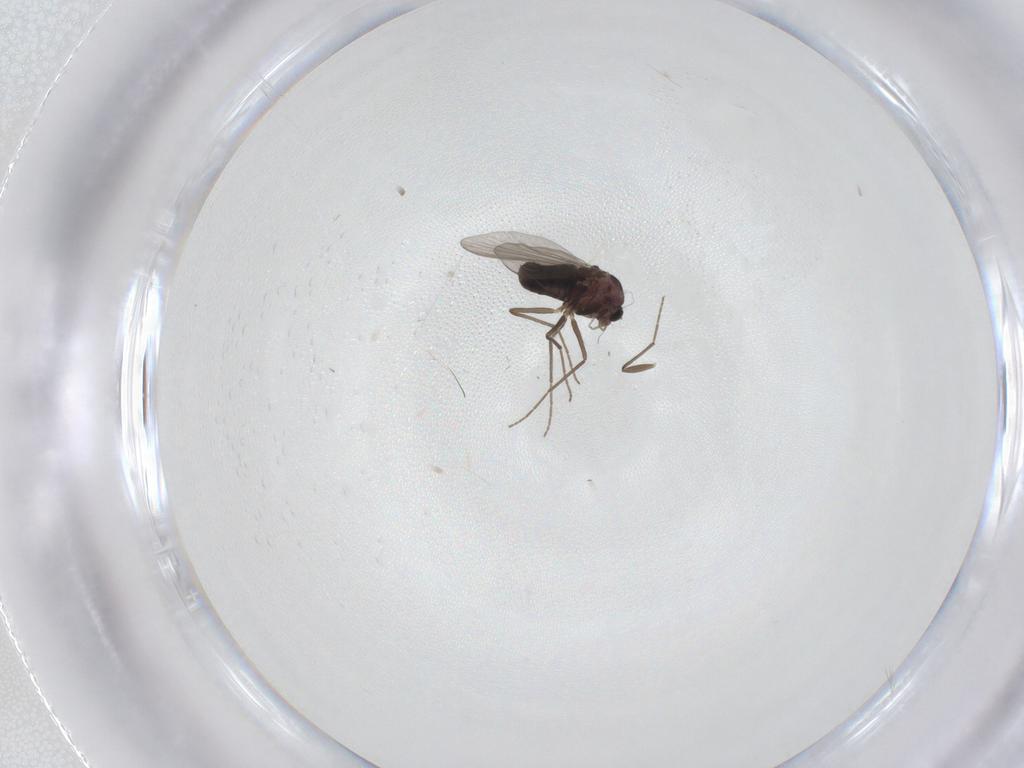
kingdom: Animalia
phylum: Arthropoda
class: Insecta
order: Diptera
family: Chironomidae
